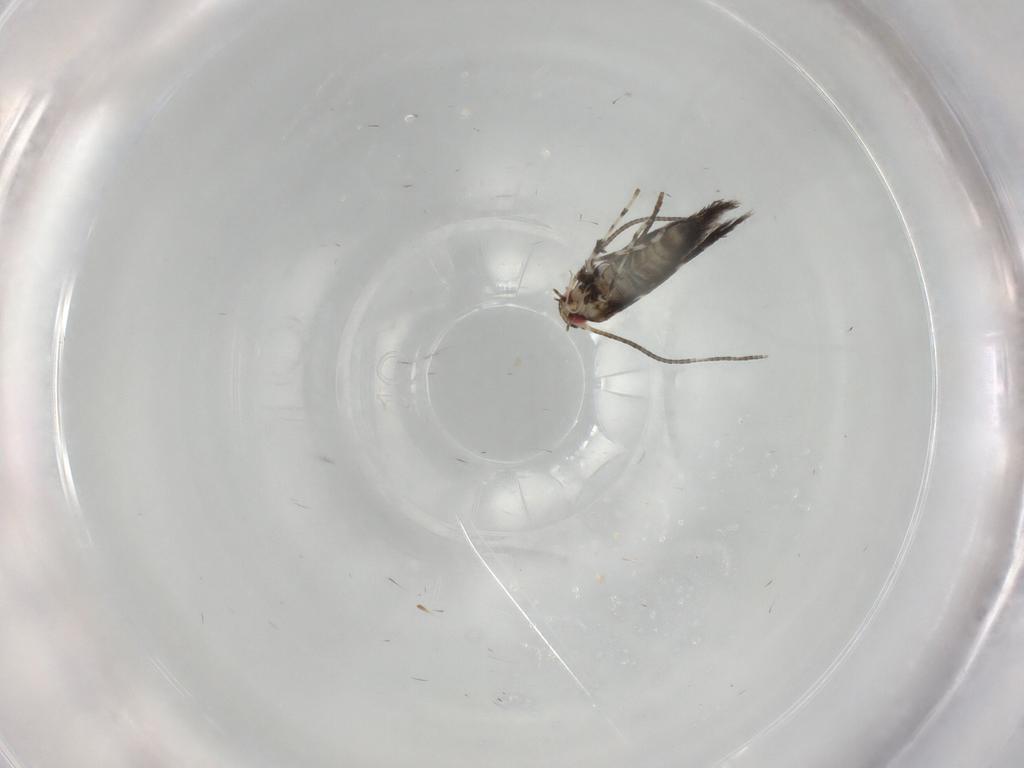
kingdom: Animalia
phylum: Arthropoda
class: Insecta
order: Lepidoptera
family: Gracillariidae
